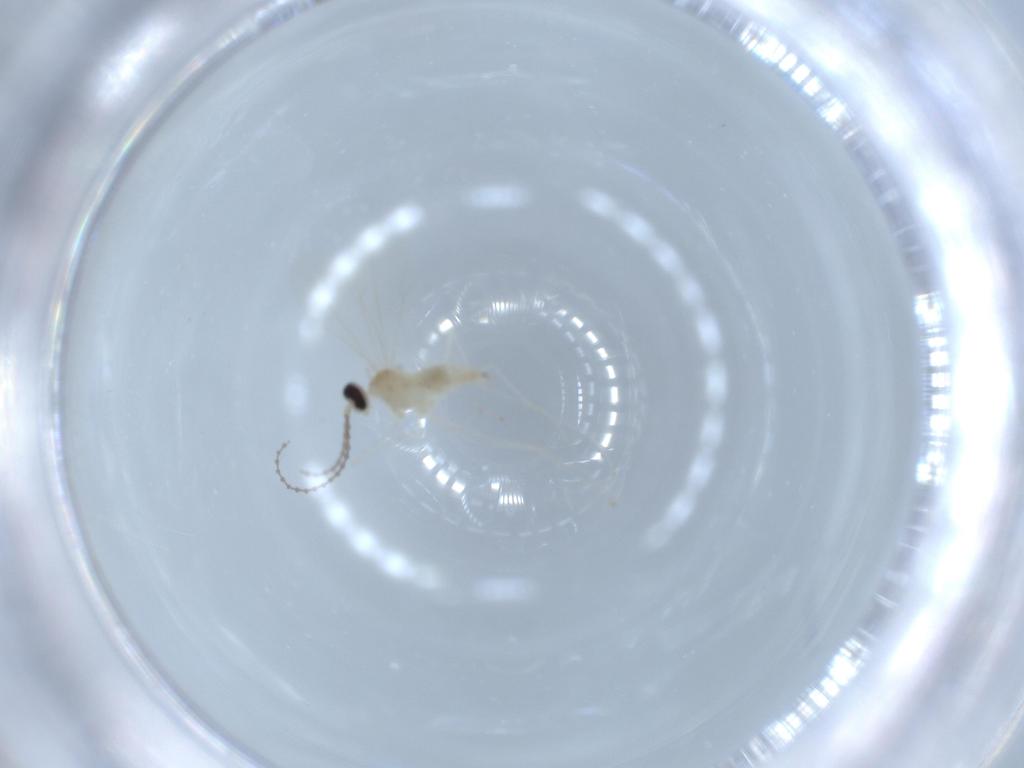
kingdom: Animalia
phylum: Arthropoda
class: Insecta
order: Diptera
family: Cecidomyiidae
